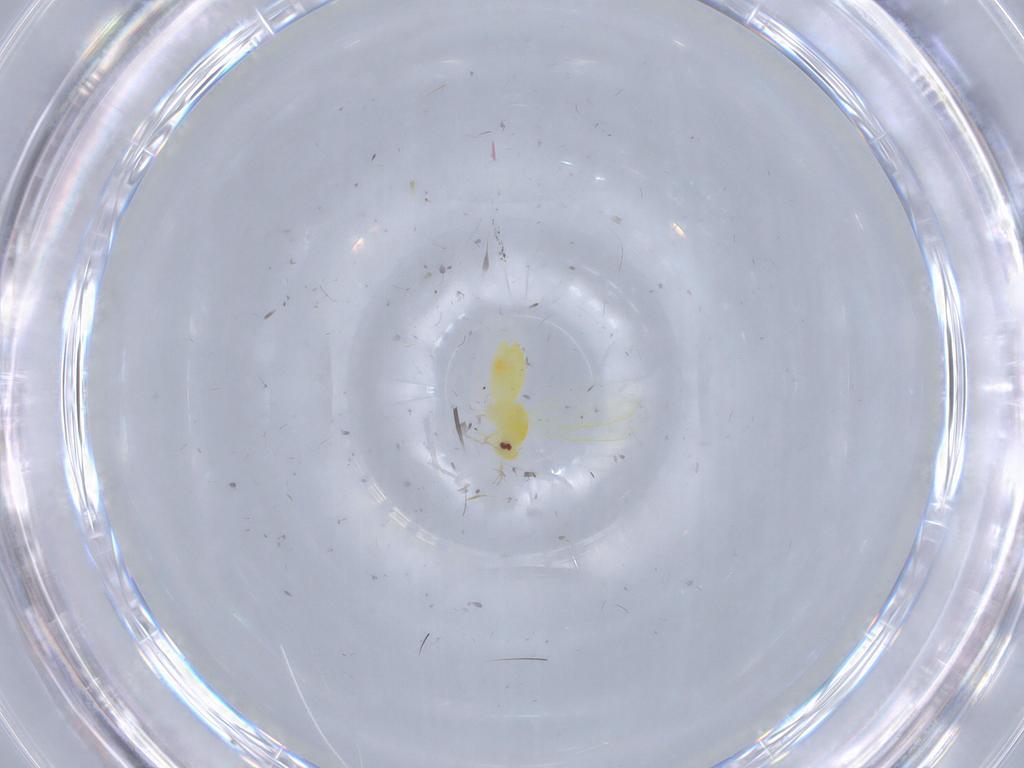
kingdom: Animalia
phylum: Arthropoda
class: Insecta
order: Hemiptera
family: Aleyrodidae
